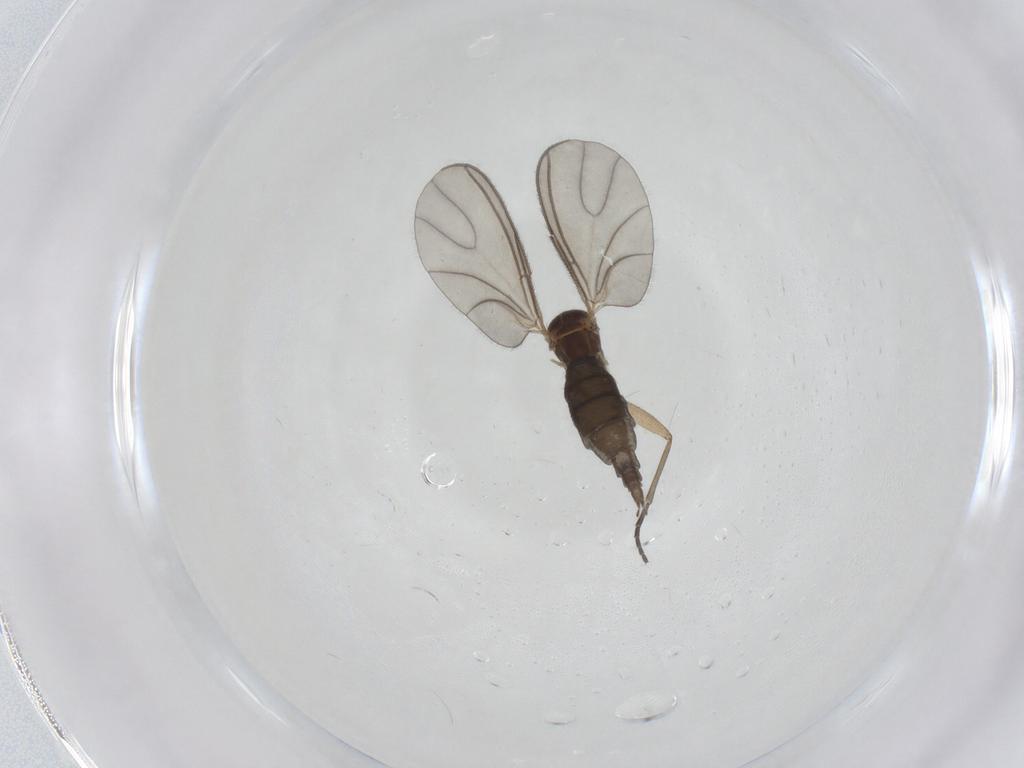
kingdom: Animalia
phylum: Arthropoda
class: Insecta
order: Diptera
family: Sciaridae
